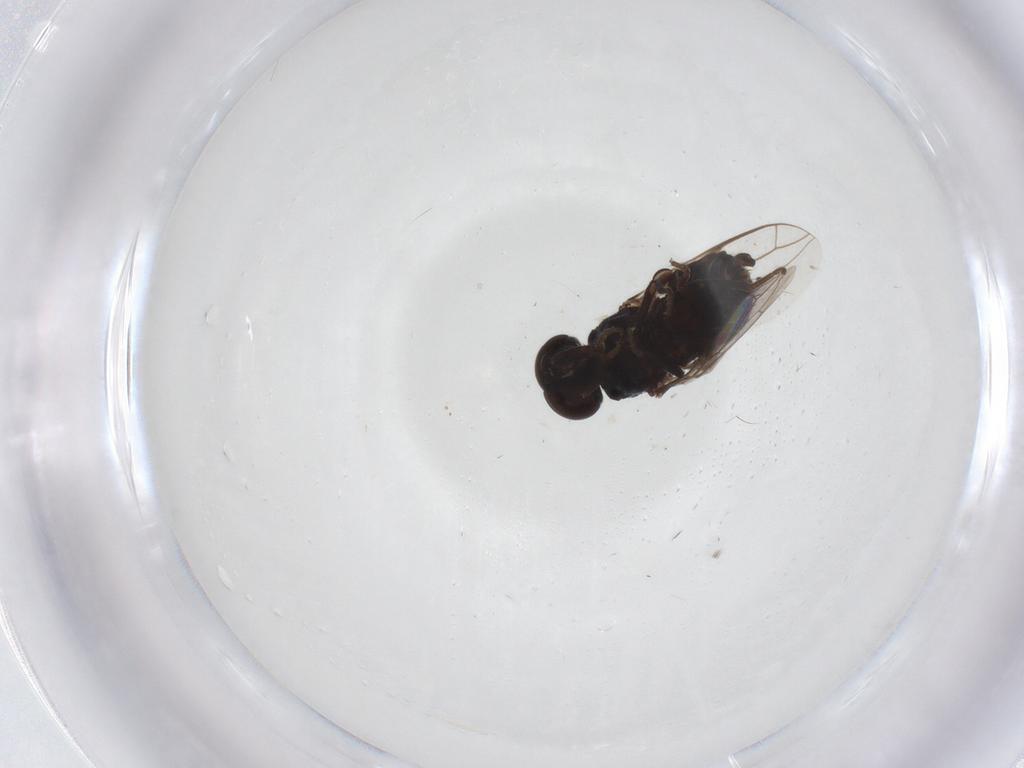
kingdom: Animalia
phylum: Arthropoda
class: Insecta
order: Diptera
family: Scenopinidae
